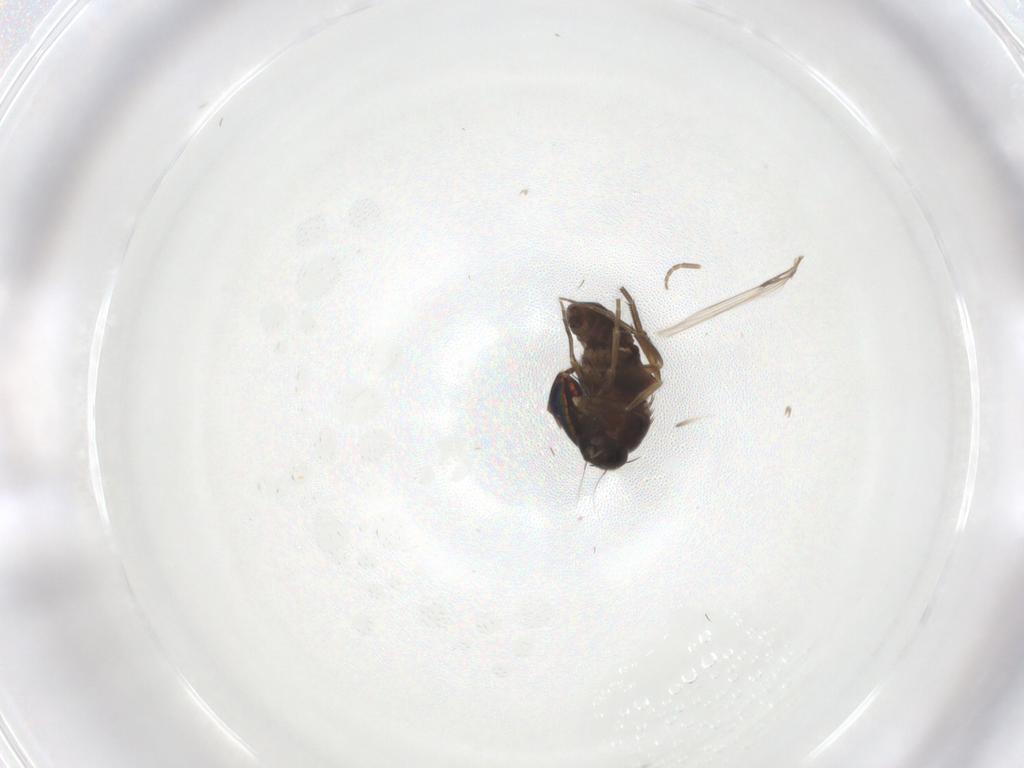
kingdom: Animalia
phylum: Arthropoda
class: Insecta
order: Diptera
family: Phoridae
